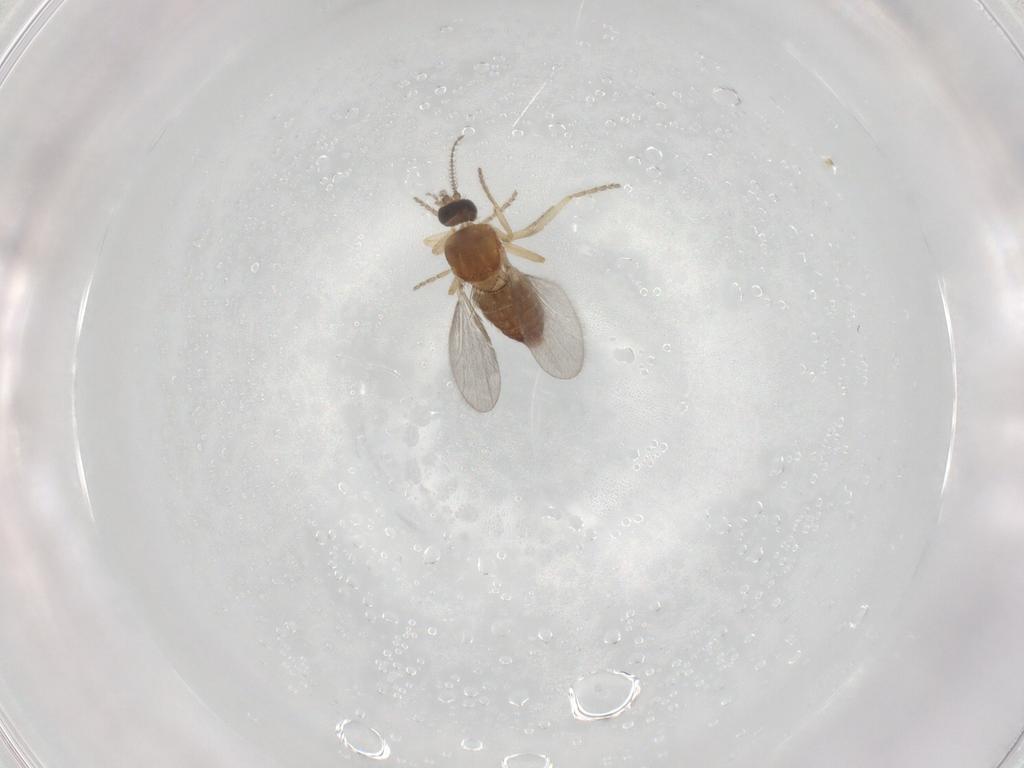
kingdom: Animalia
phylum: Arthropoda
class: Insecta
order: Diptera
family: Ceratopogonidae
